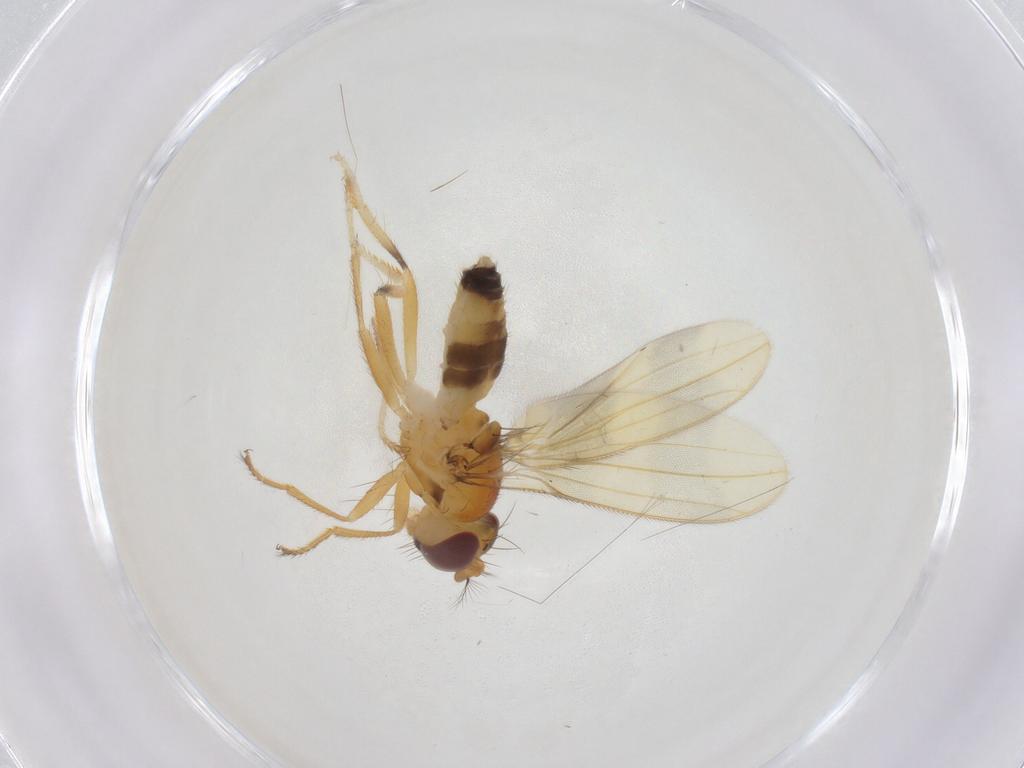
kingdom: Animalia
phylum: Arthropoda
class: Insecta
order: Diptera
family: Periscelididae
